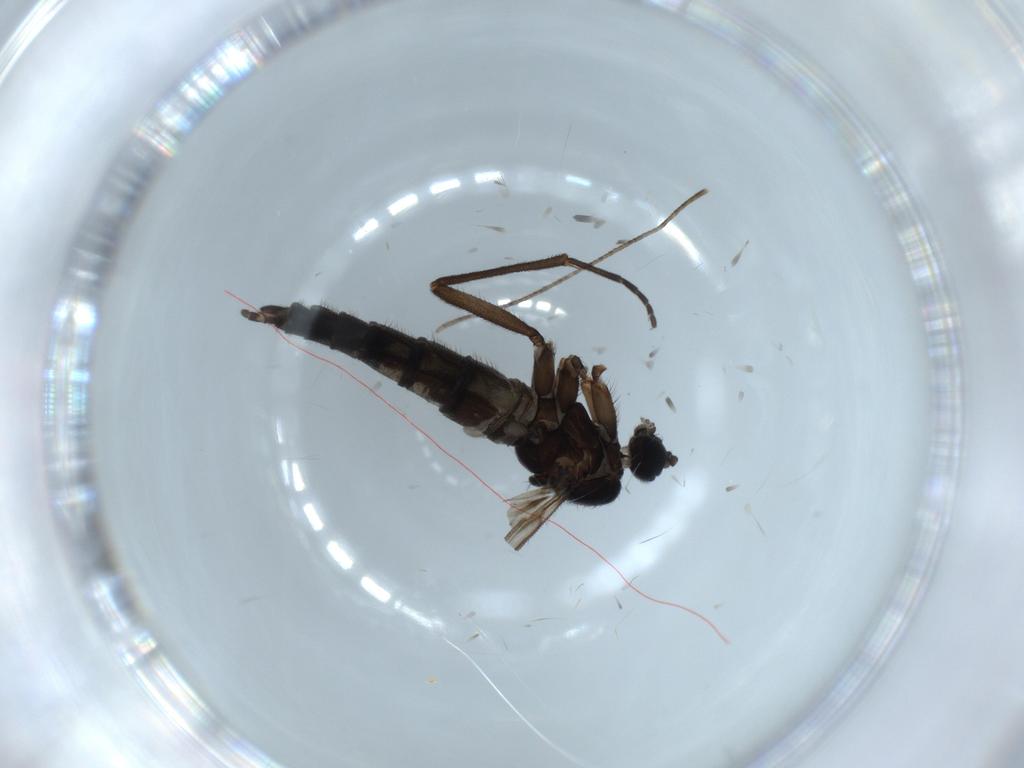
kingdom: Animalia
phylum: Arthropoda
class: Insecta
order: Diptera
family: Sciaridae
